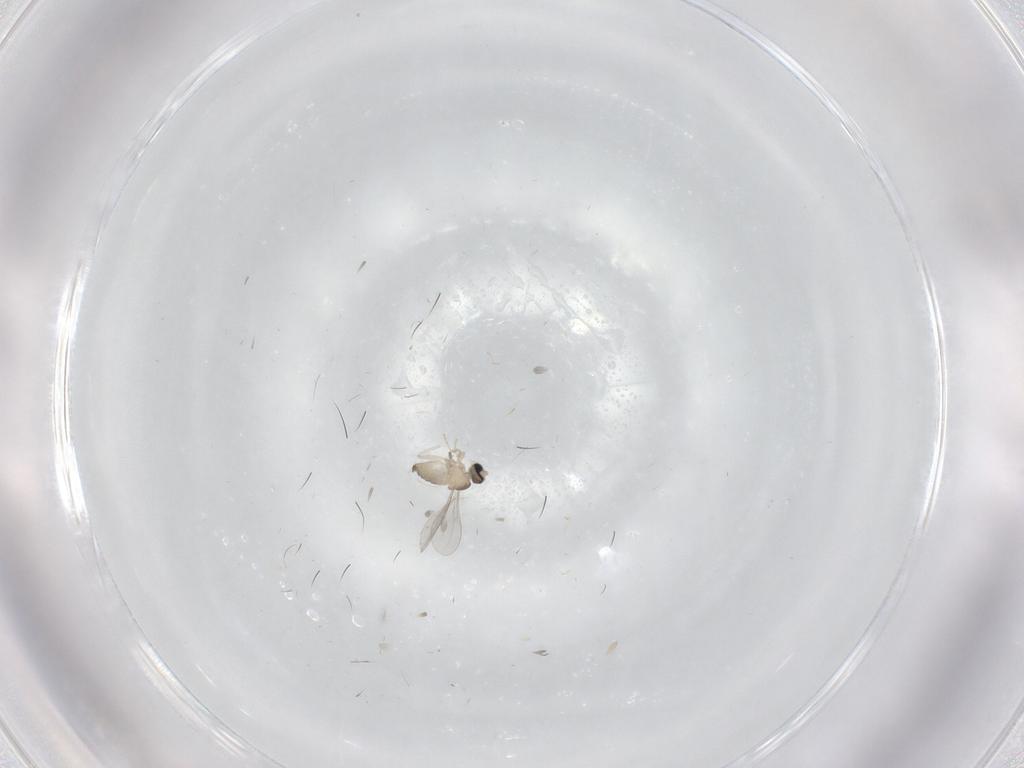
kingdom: Animalia
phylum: Arthropoda
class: Insecta
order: Diptera
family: Cecidomyiidae
